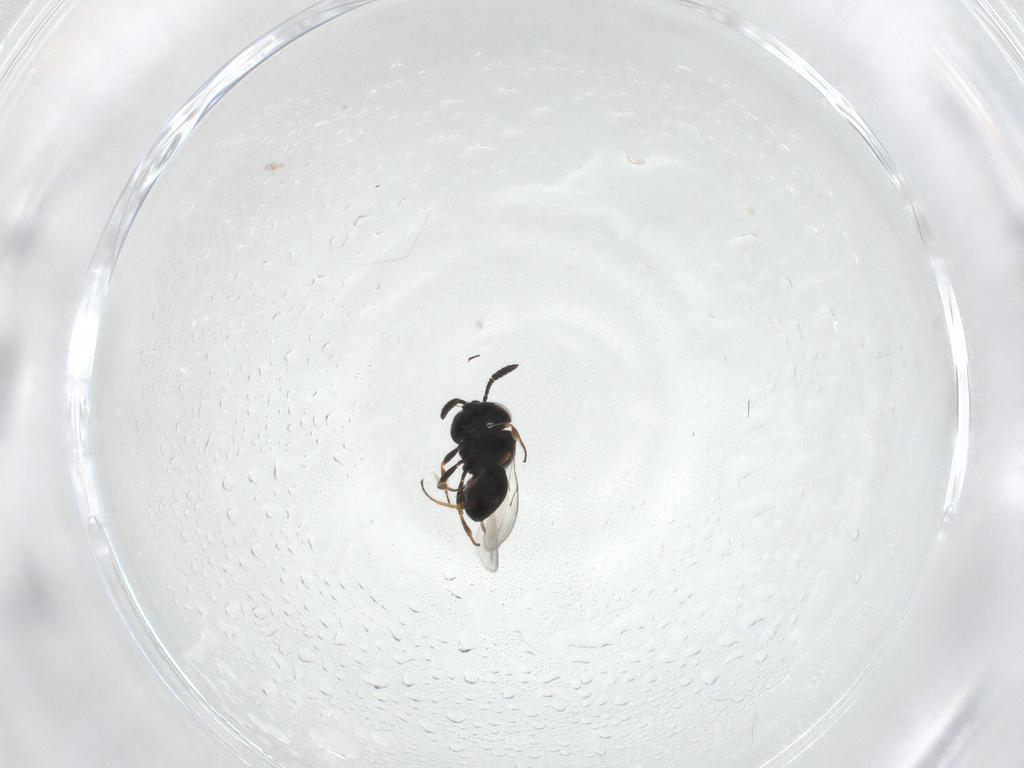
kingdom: Animalia
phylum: Arthropoda
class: Insecta
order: Hymenoptera
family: Scelionidae
